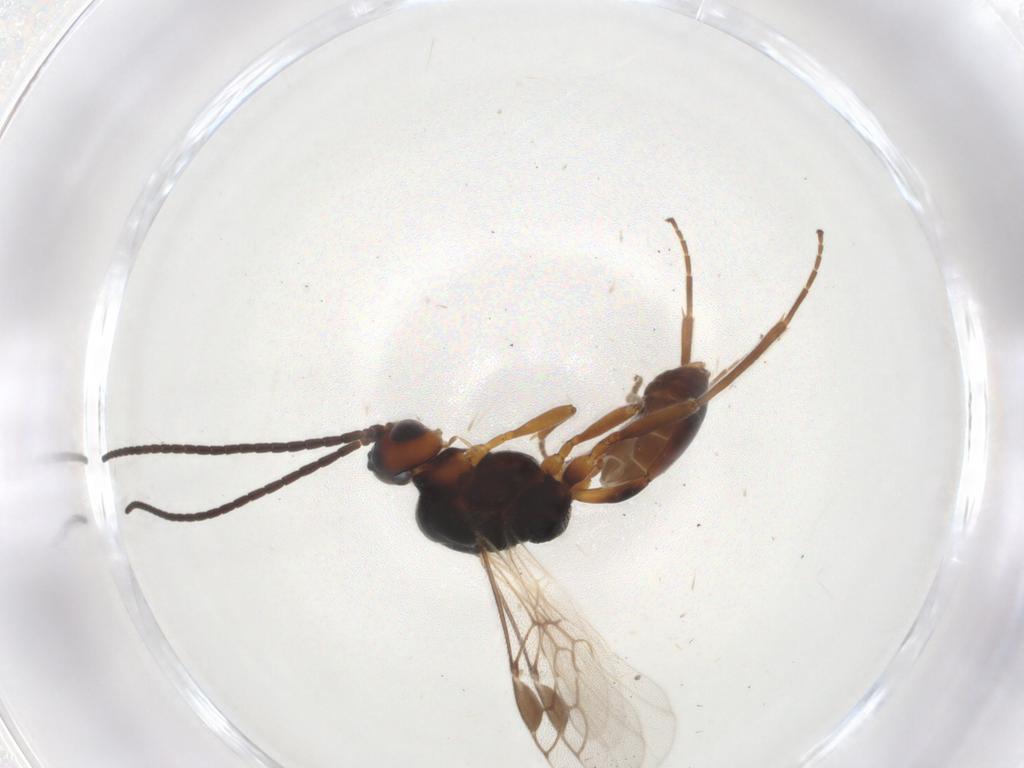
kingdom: Animalia
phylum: Arthropoda
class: Insecta
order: Hymenoptera
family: Braconidae
